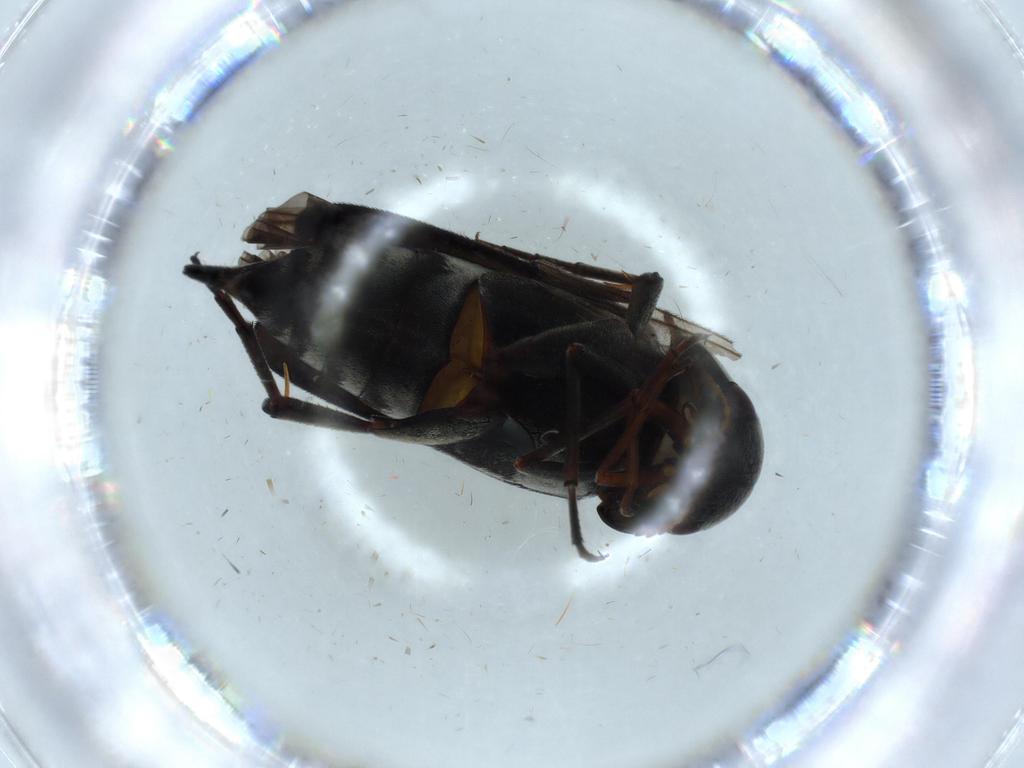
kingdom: Animalia
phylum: Arthropoda
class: Insecta
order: Coleoptera
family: Mordellidae
